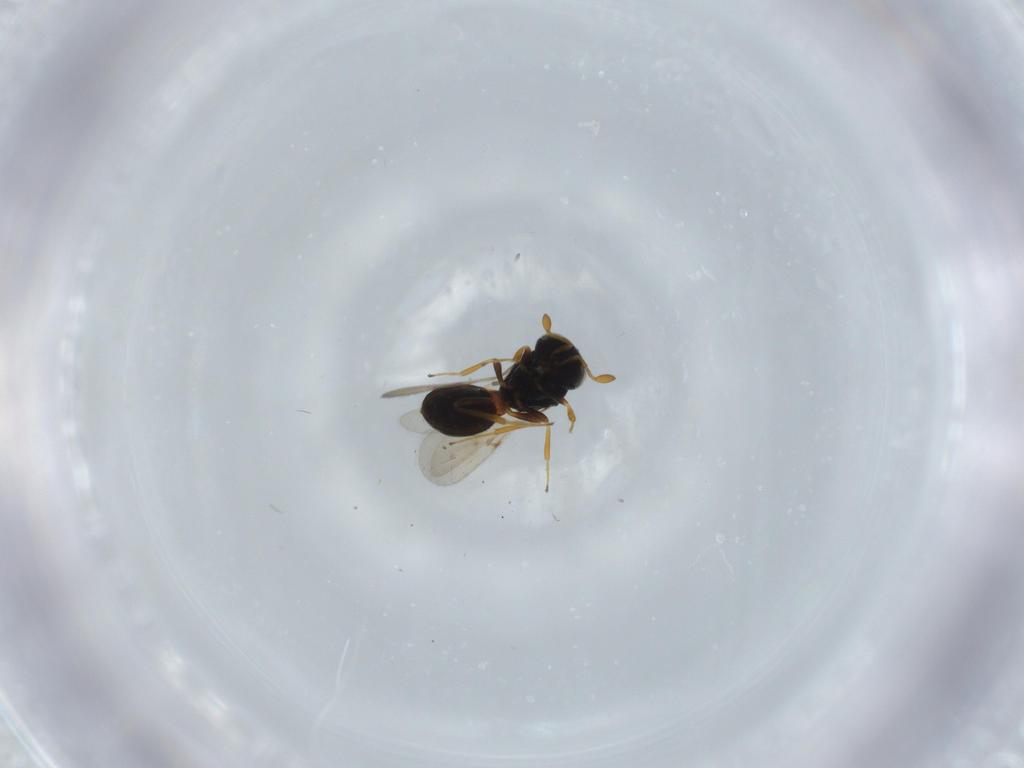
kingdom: Animalia
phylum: Arthropoda
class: Insecta
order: Hymenoptera
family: Scelionidae
